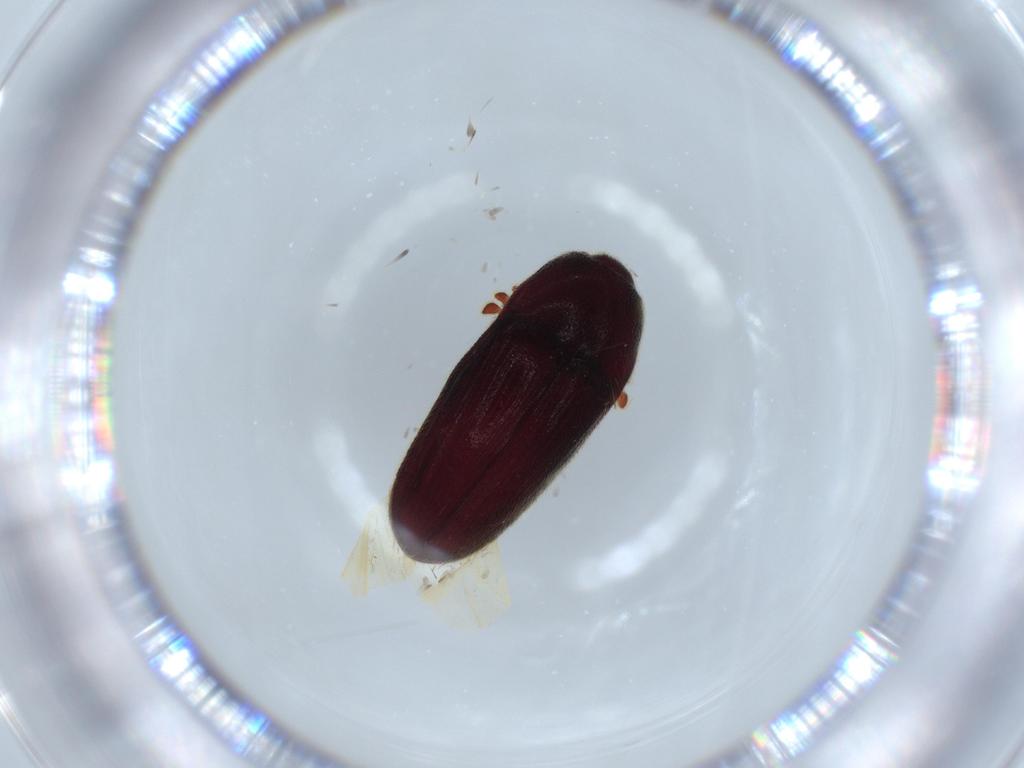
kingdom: Animalia
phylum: Arthropoda
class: Insecta
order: Coleoptera
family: Throscidae
